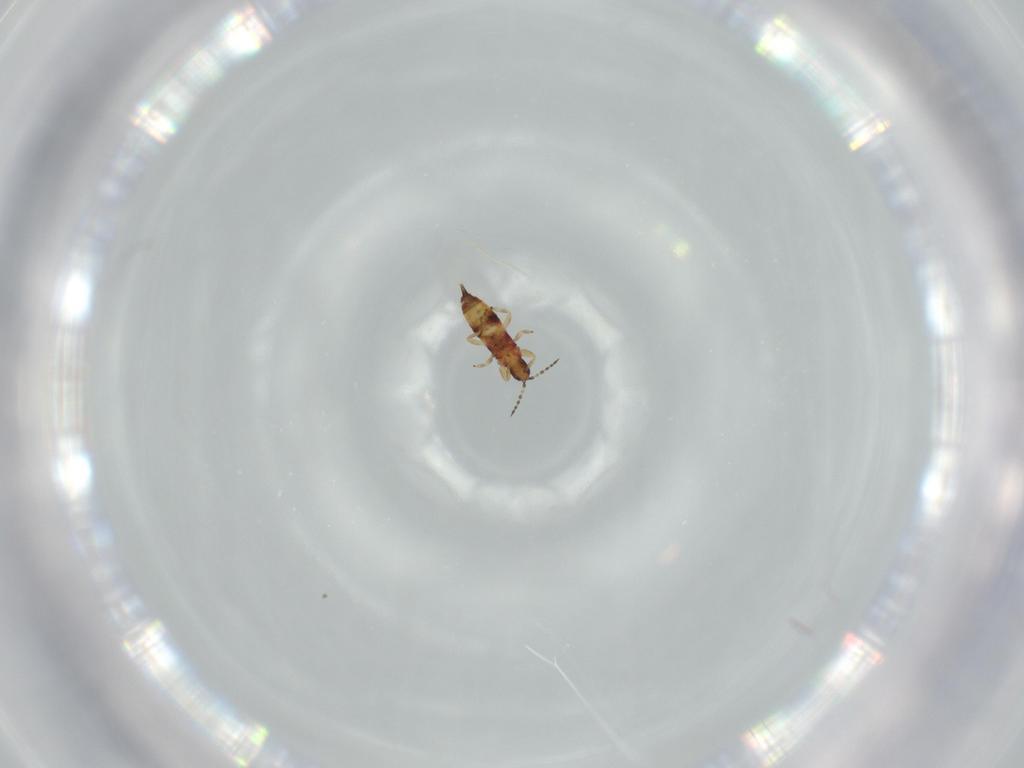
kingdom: Animalia
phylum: Arthropoda
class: Insecta
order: Thysanoptera
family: Phlaeothripidae
